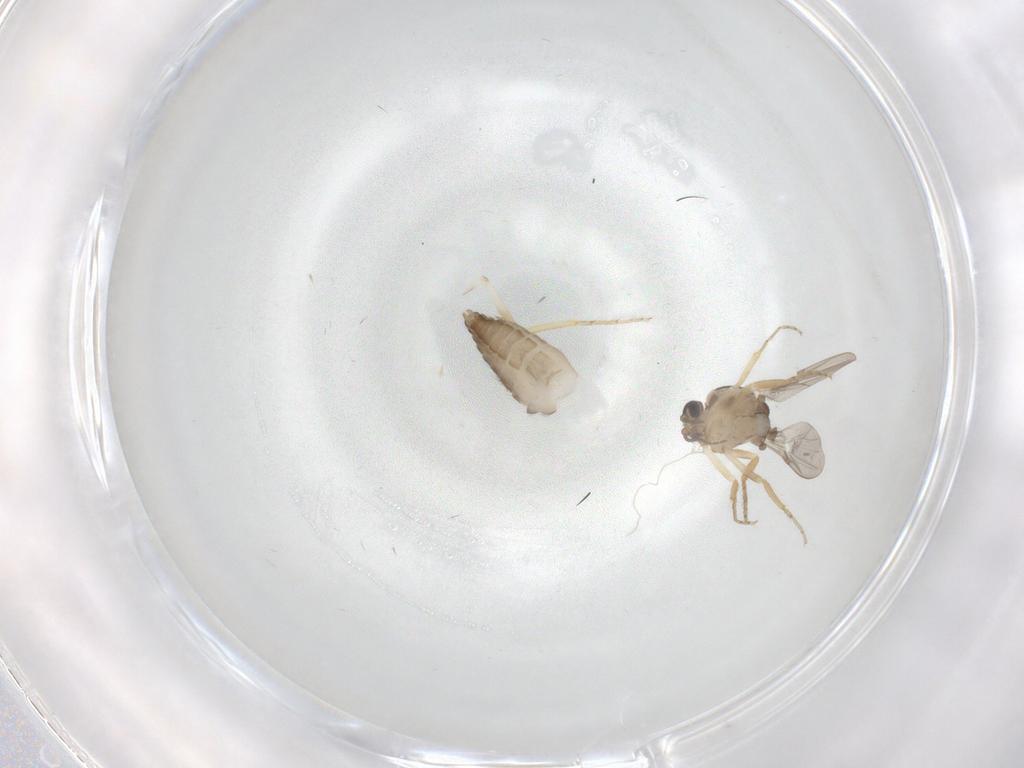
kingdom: Animalia
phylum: Arthropoda
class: Insecta
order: Diptera
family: Ceratopogonidae
